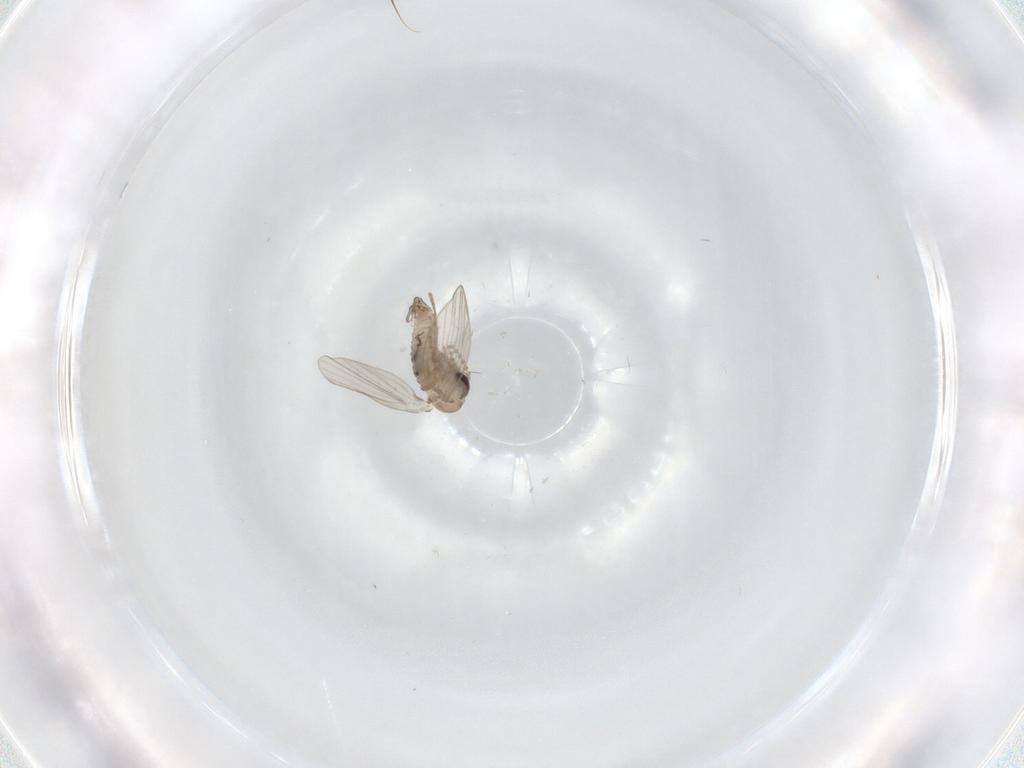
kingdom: Animalia
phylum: Arthropoda
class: Insecta
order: Diptera
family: Psychodidae
